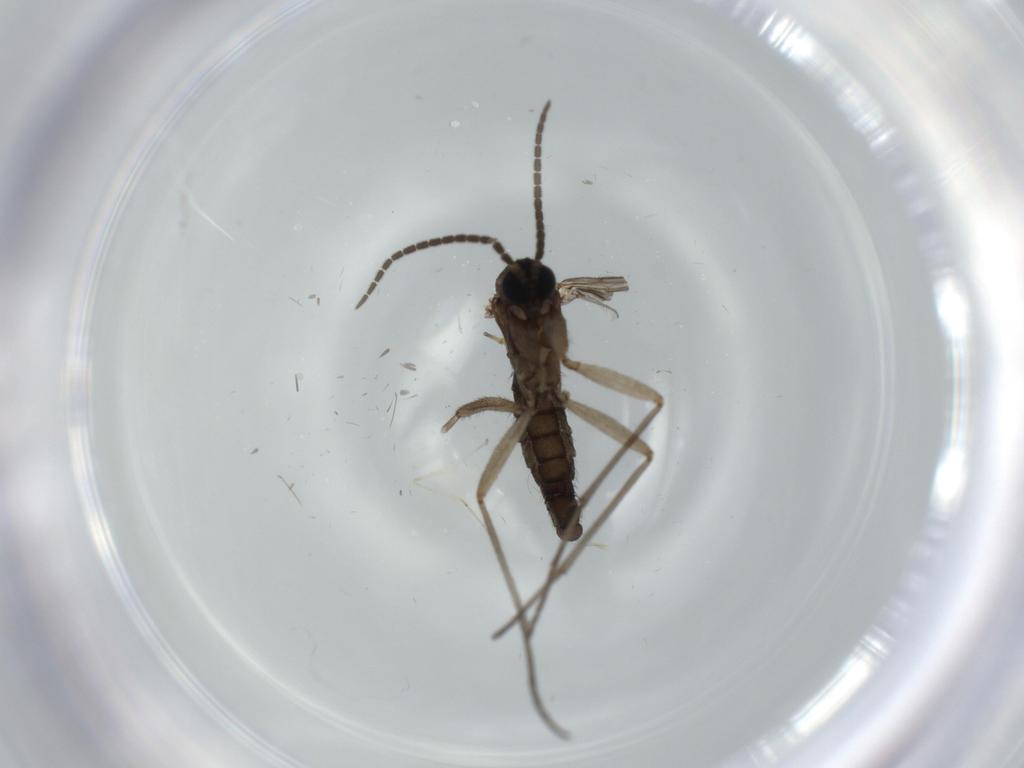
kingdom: Animalia
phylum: Arthropoda
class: Insecta
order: Diptera
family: Sciaridae
